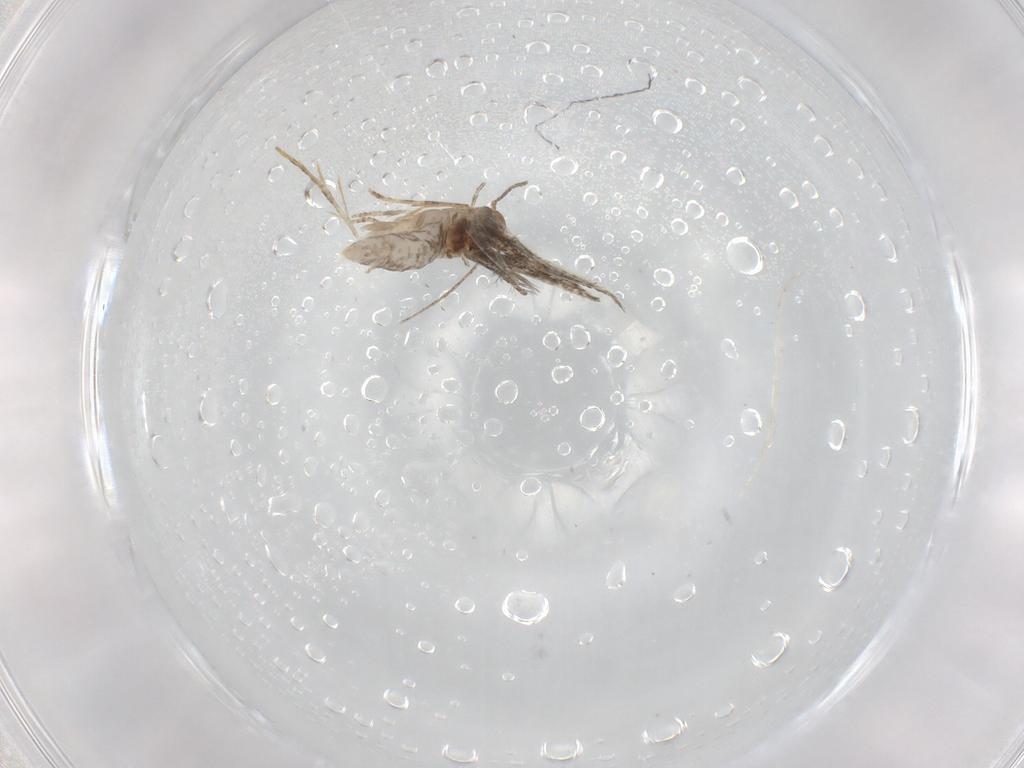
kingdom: Animalia
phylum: Arthropoda
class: Insecta
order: Lepidoptera
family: Elachistidae
